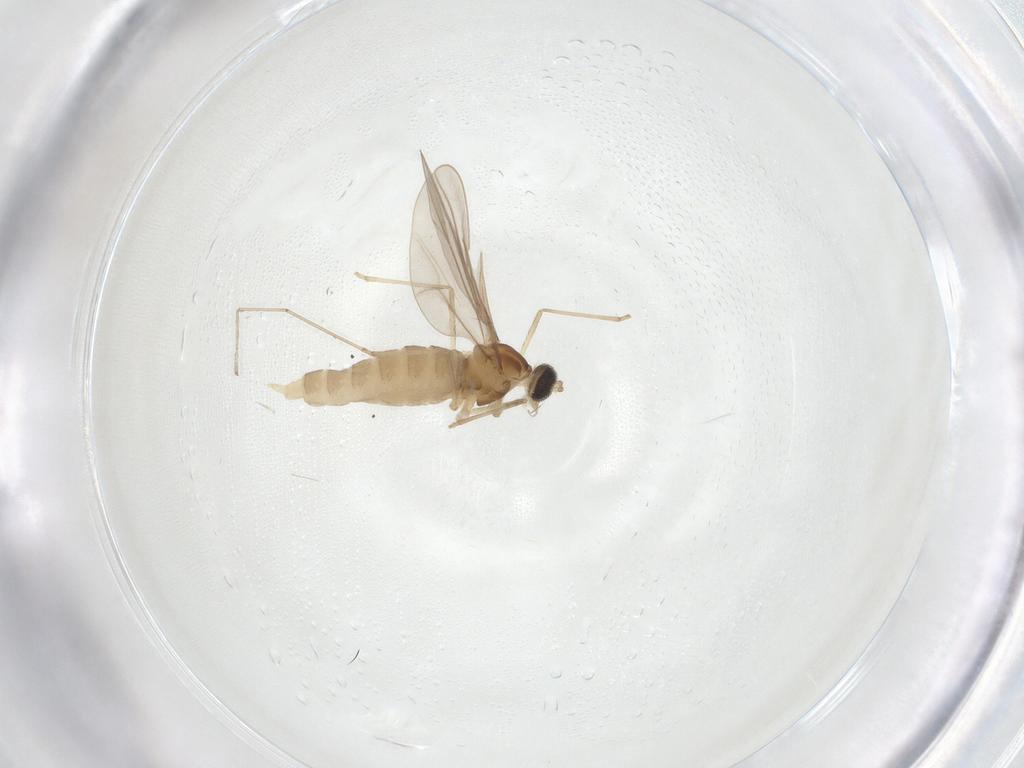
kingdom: Animalia
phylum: Arthropoda
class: Insecta
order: Diptera
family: Cecidomyiidae
